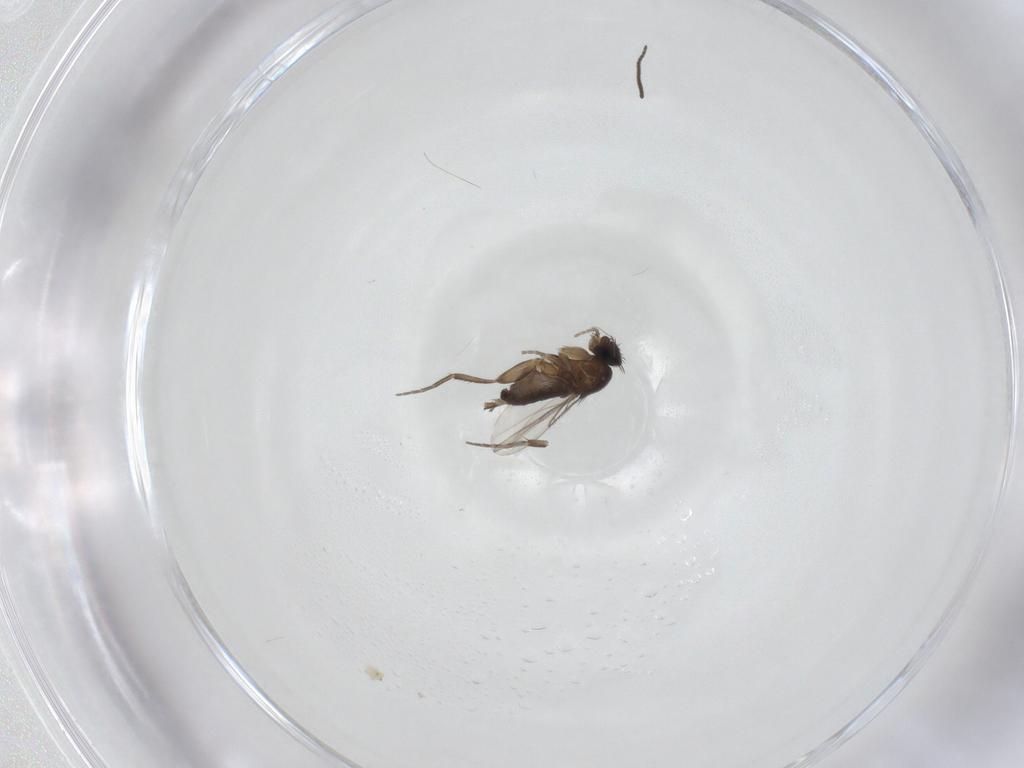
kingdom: Animalia
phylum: Arthropoda
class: Insecta
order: Diptera
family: Phoridae
